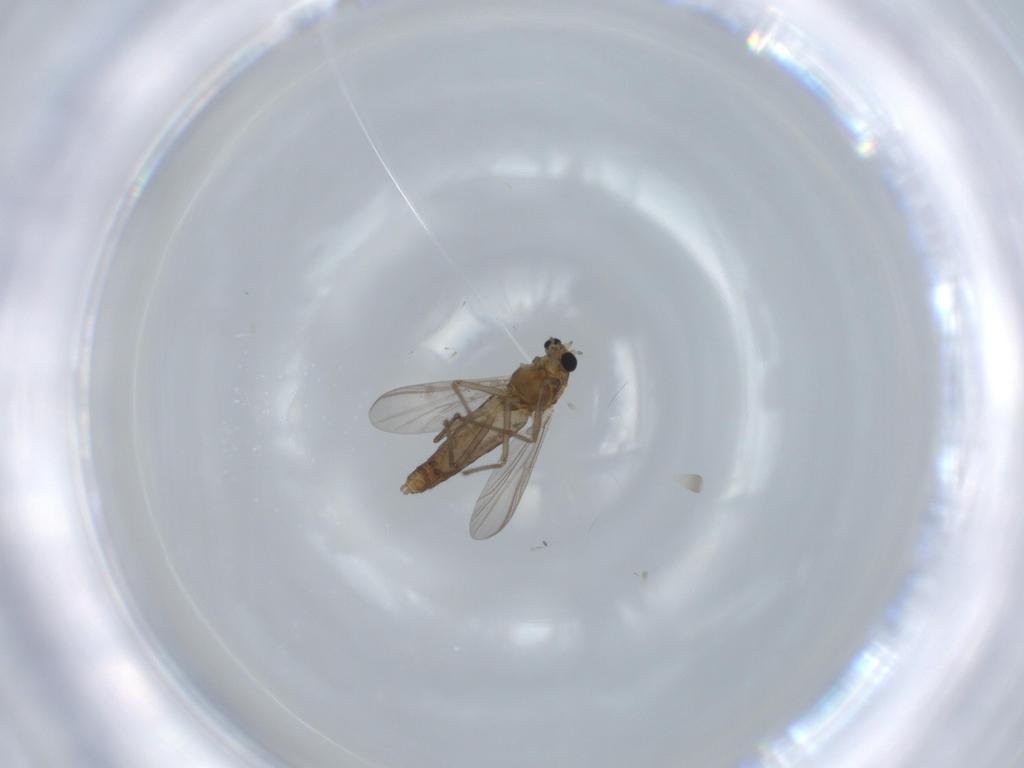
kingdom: Animalia
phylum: Arthropoda
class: Insecta
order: Diptera
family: Chironomidae
